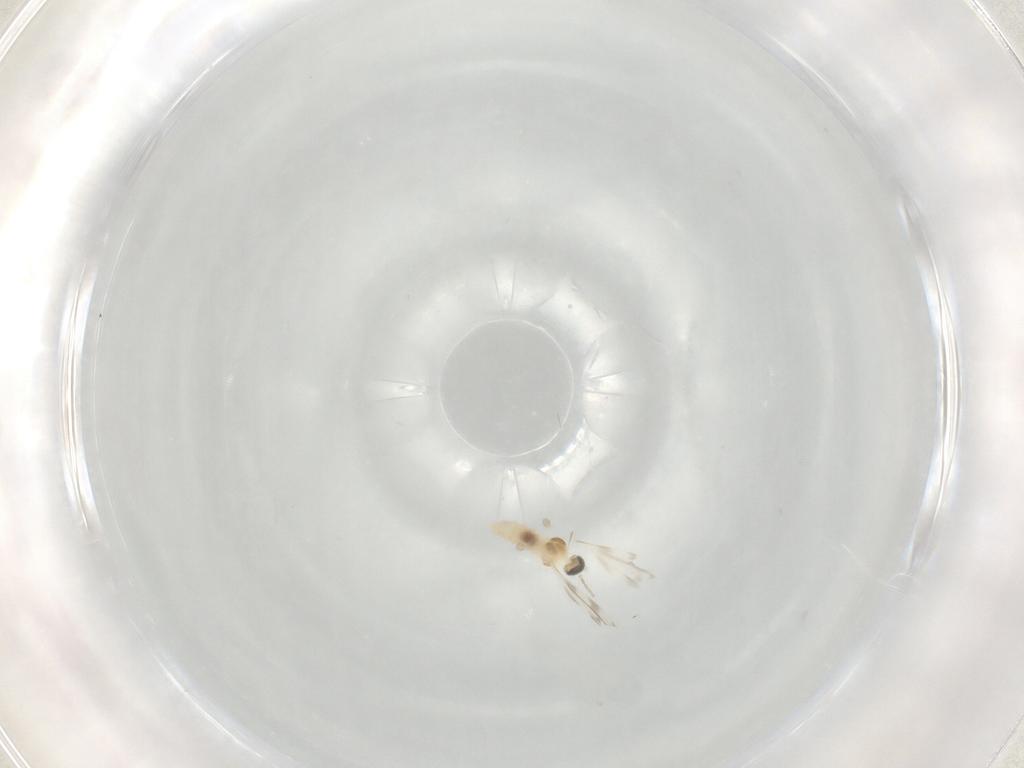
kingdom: Animalia
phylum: Arthropoda
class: Insecta
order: Diptera
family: Cecidomyiidae
